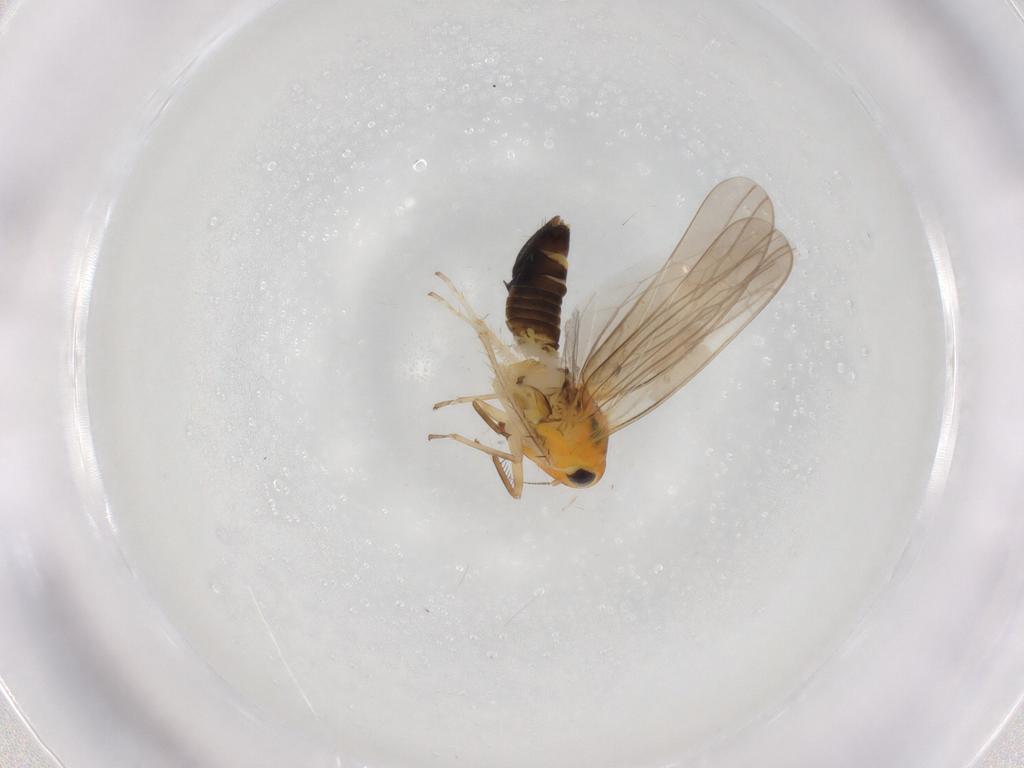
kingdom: Animalia
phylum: Arthropoda
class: Insecta
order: Hemiptera
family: Cicadellidae
